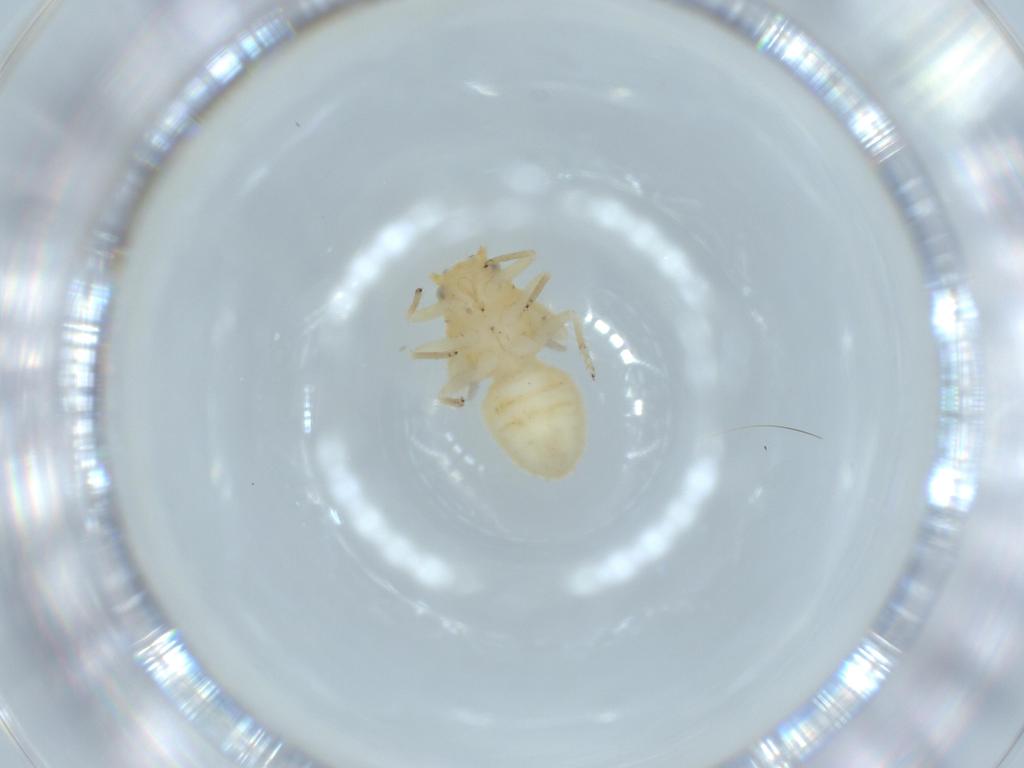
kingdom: Animalia
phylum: Arthropoda
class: Insecta
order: Hemiptera
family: Psyllidae
